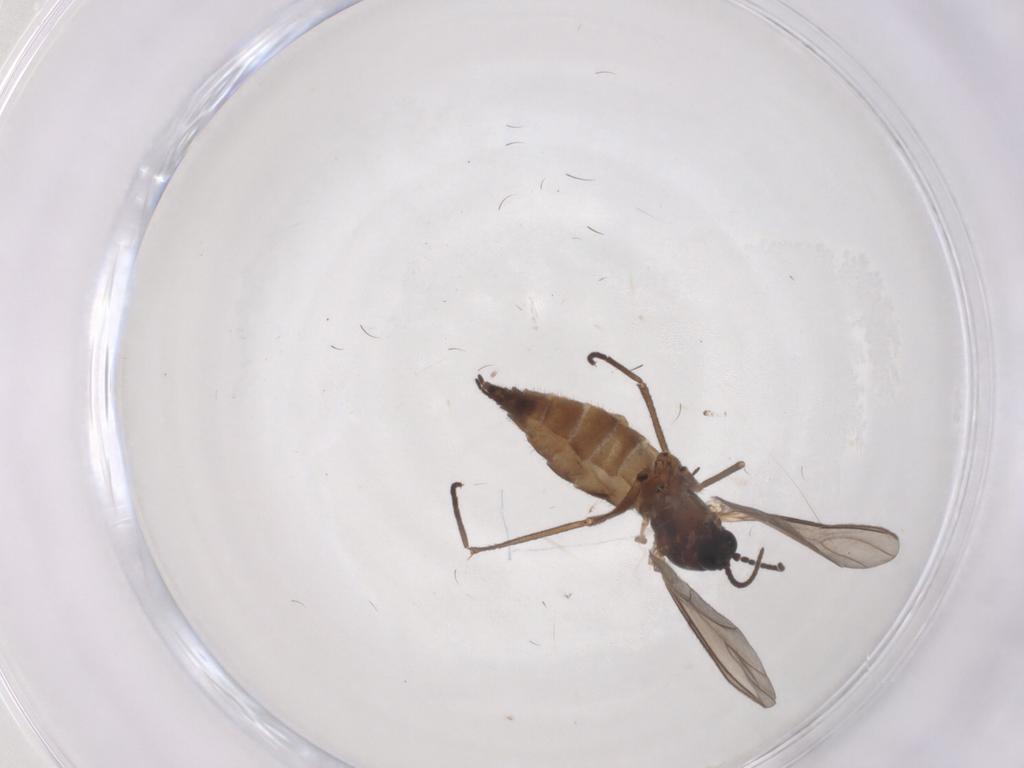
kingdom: Animalia
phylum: Arthropoda
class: Insecta
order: Diptera
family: Sciaridae
